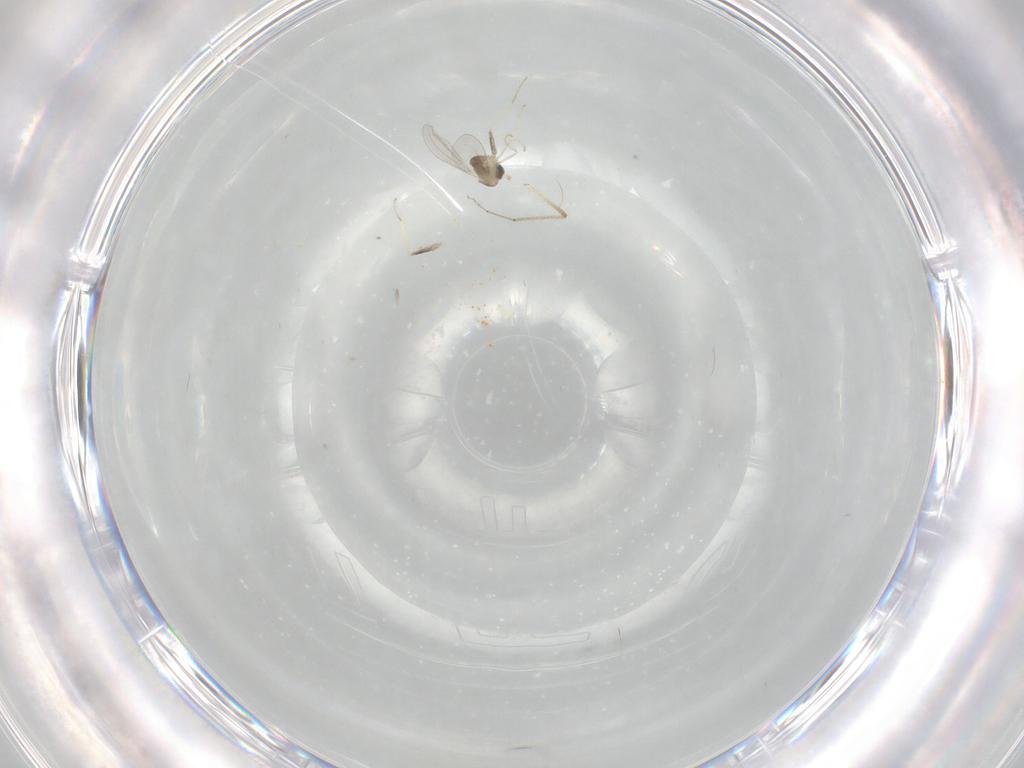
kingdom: Animalia
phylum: Arthropoda
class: Insecta
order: Diptera
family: Cecidomyiidae
